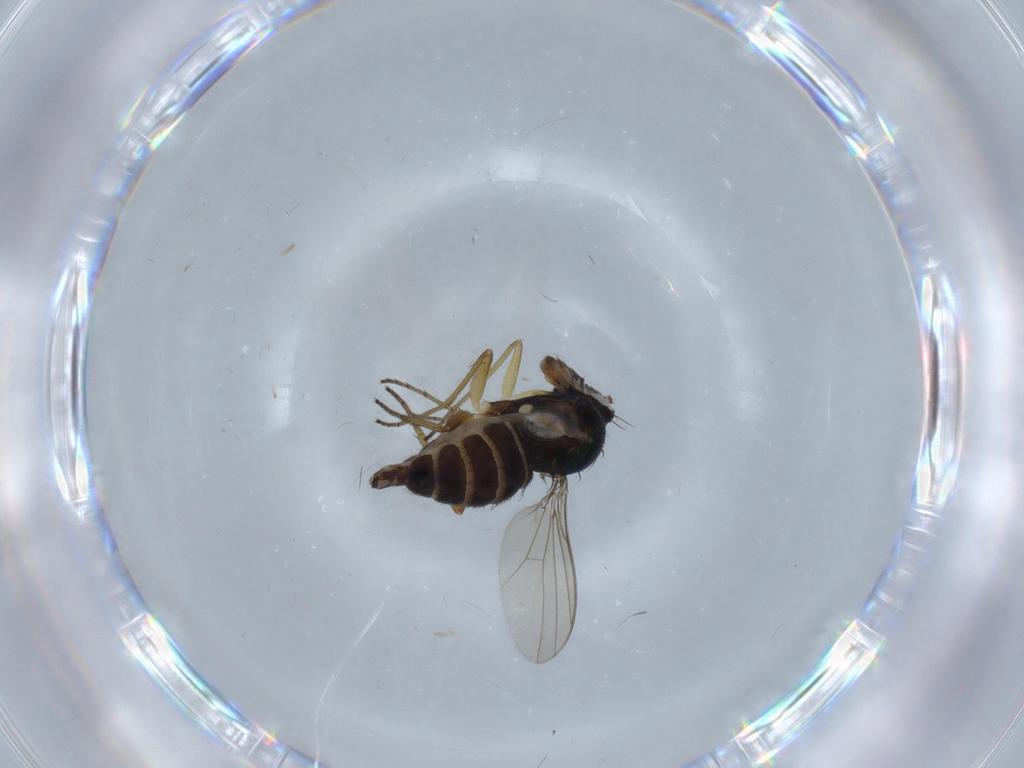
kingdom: Animalia
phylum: Arthropoda
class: Insecta
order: Diptera
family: Dolichopodidae
